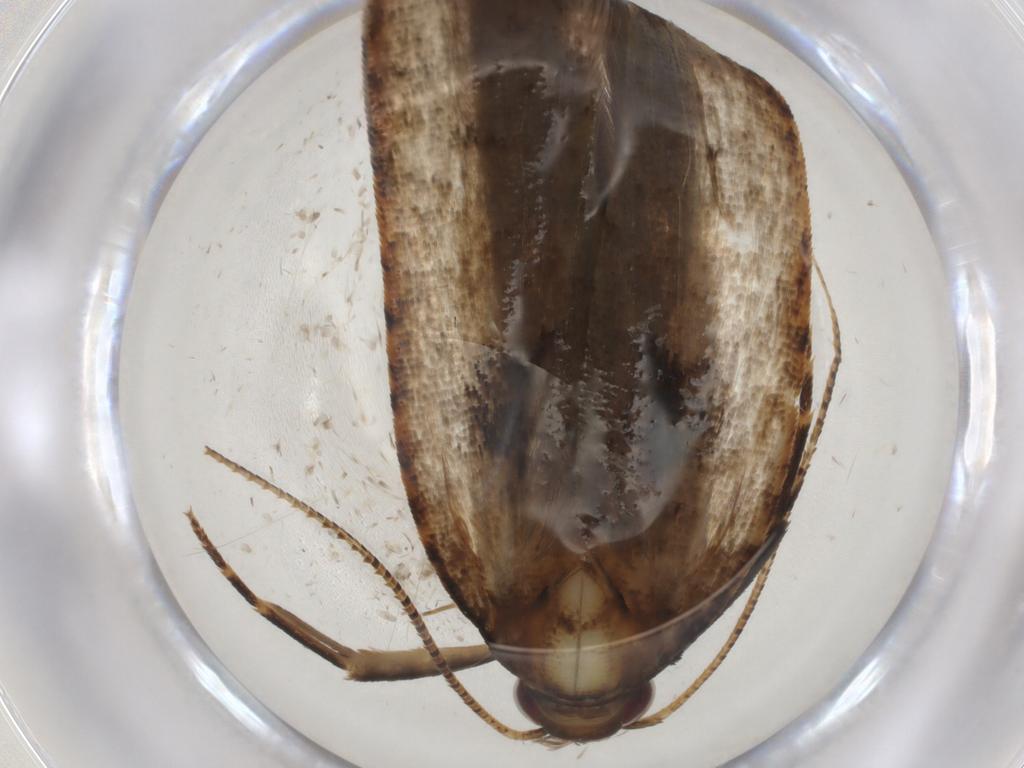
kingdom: Animalia
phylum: Arthropoda
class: Insecta
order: Lepidoptera
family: Gelechiidae
